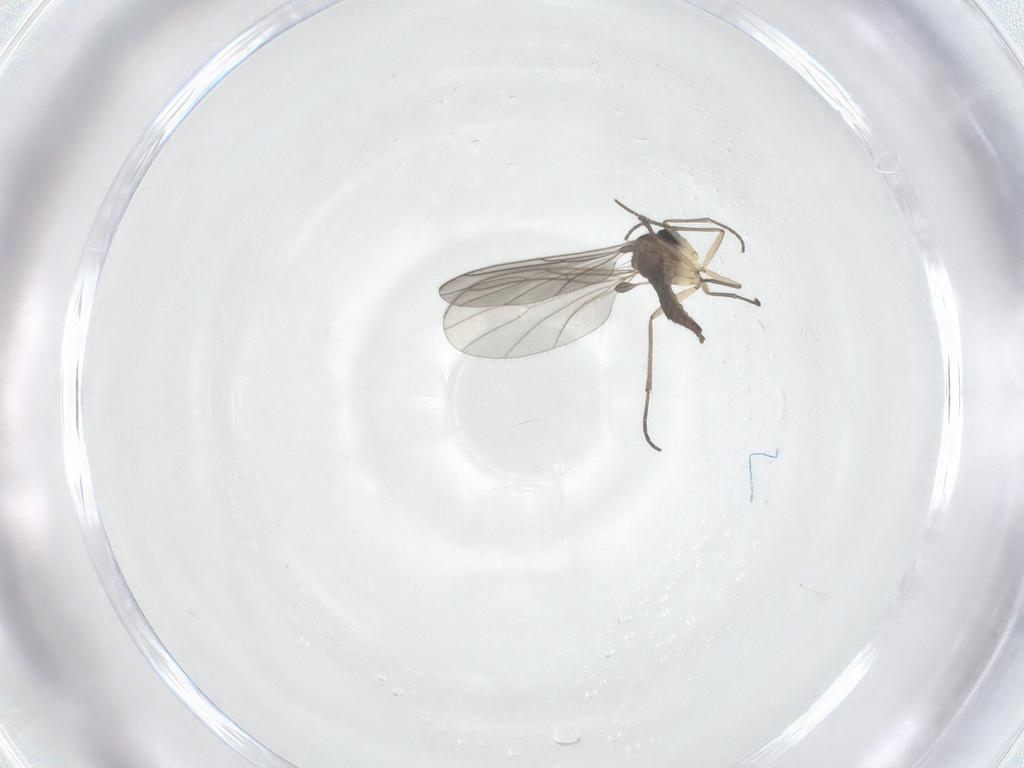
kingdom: Animalia
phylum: Arthropoda
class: Insecta
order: Diptera
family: Sciaridae
